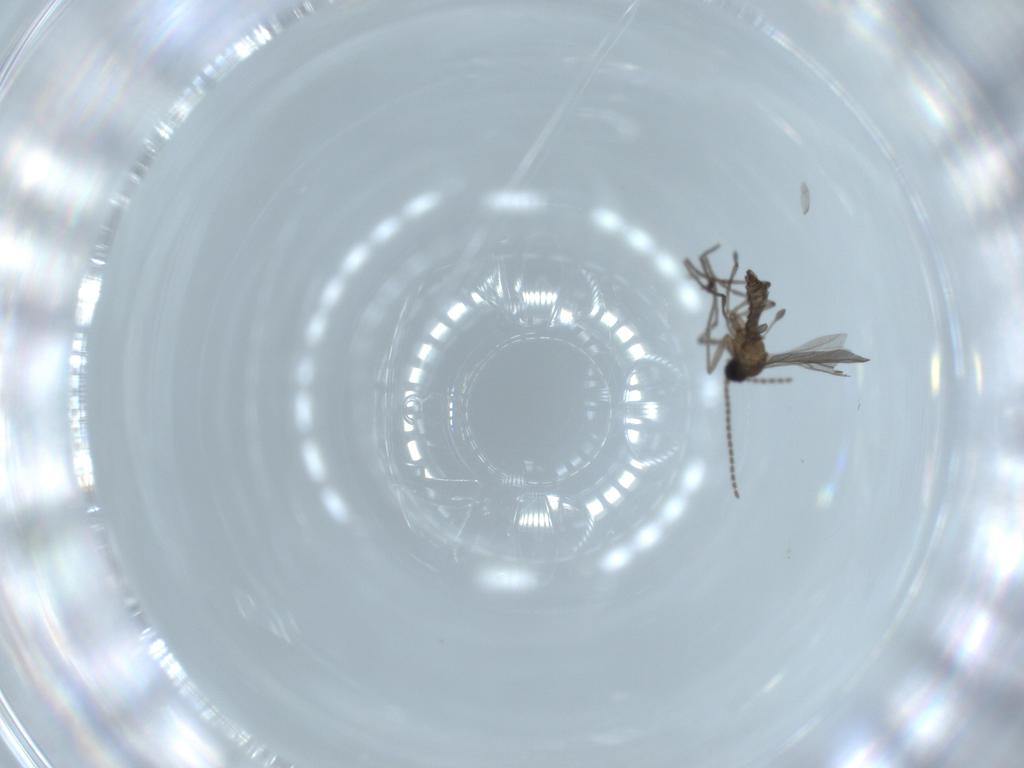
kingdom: Animalia
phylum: Arthropoda
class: Insecta
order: Diptera
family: Sciaridae
